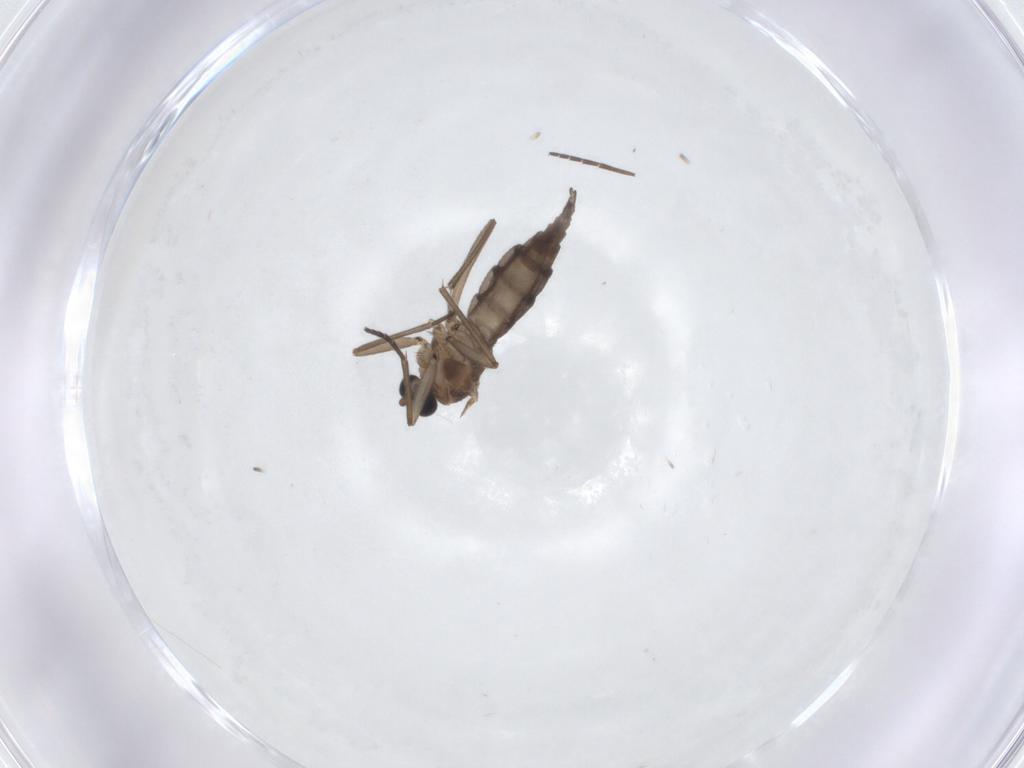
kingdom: Animalia
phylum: Arthropoda
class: Insecta
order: Diptera
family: Sciaridae
